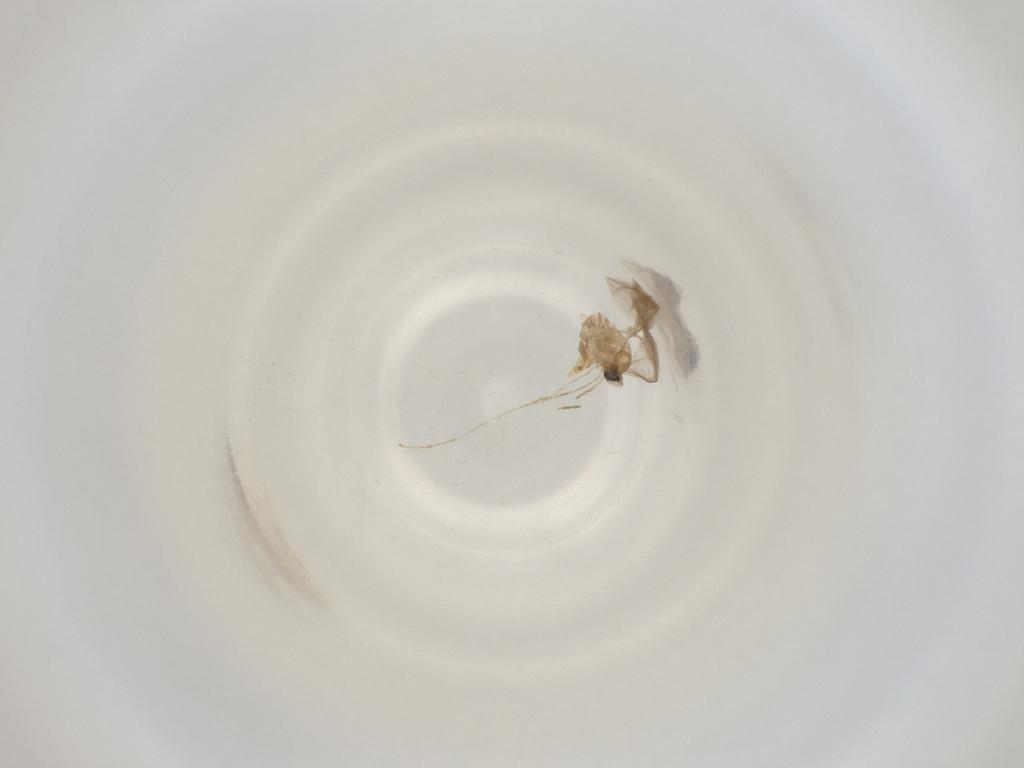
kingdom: Animalia
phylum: Arthropoda
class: Insecta
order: Diptera
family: Cecidomyiidae
